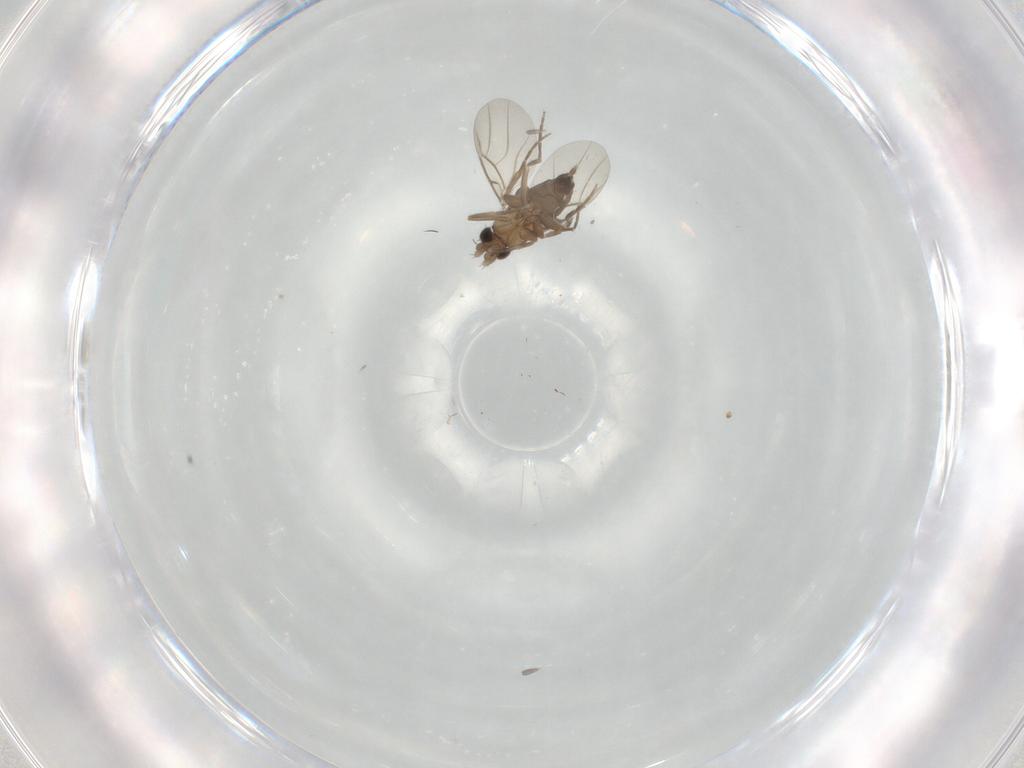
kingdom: Animalia
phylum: Arthropoda
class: Insecta
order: Diptera
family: Phoridae
